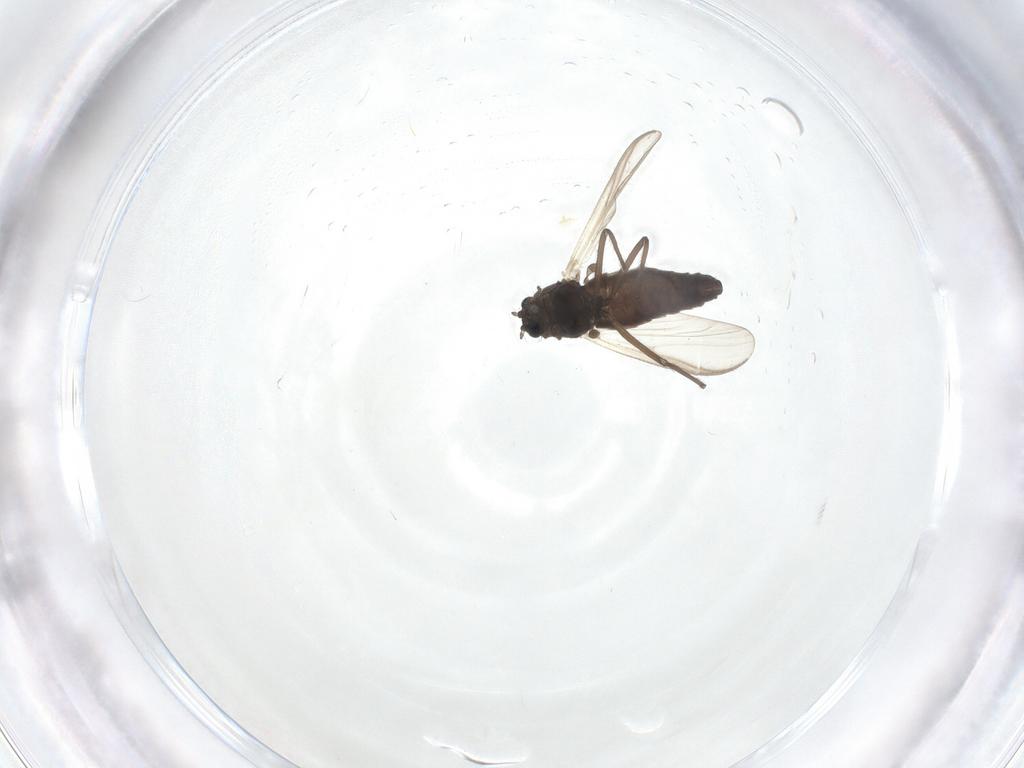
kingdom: Animalia
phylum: Arthropoda
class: Insecta
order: Diptera
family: Chironomidae
